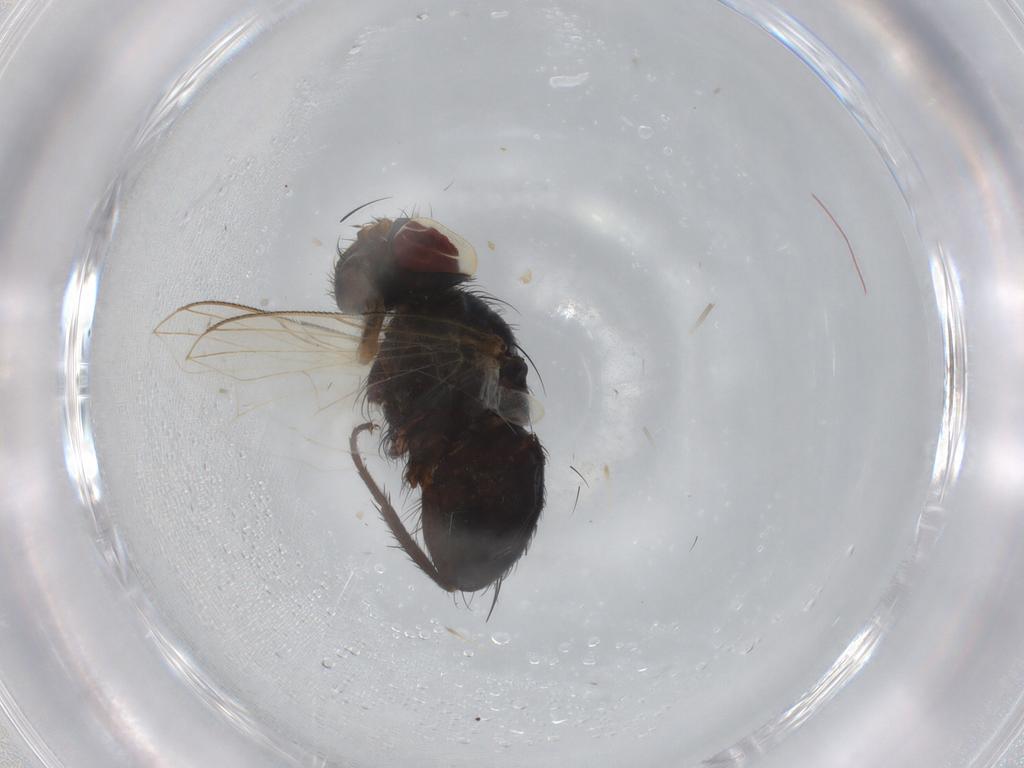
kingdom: Animalia
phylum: Arthropoda
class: Insecta
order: Diptera
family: Tachinidae
